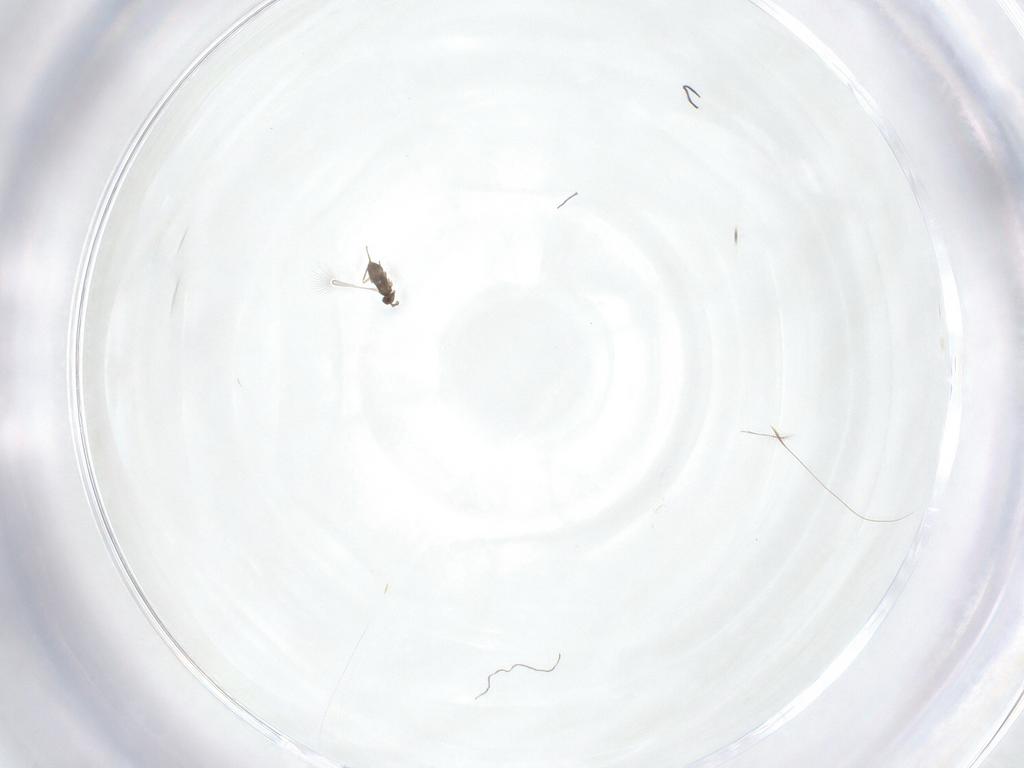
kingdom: Animalia
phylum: Arthropoda
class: Insecta
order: Hymenoptera
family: Mymaridae
